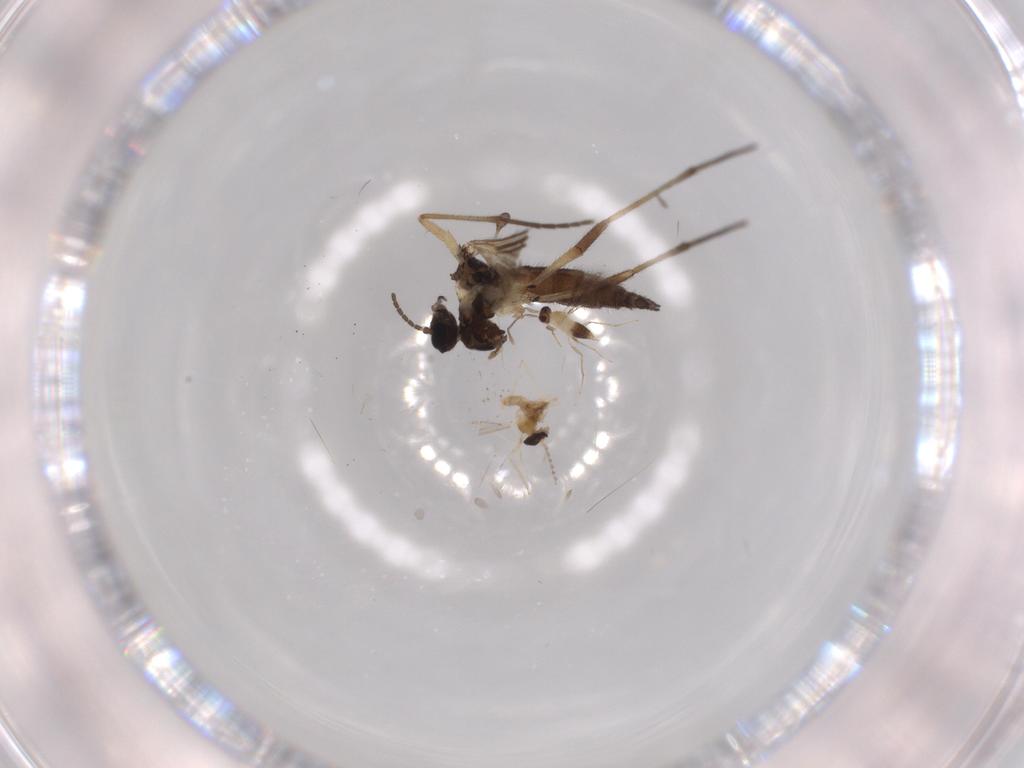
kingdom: Animalia
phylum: Arthropoda
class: Insecta
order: Diptera
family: Sciaridae
